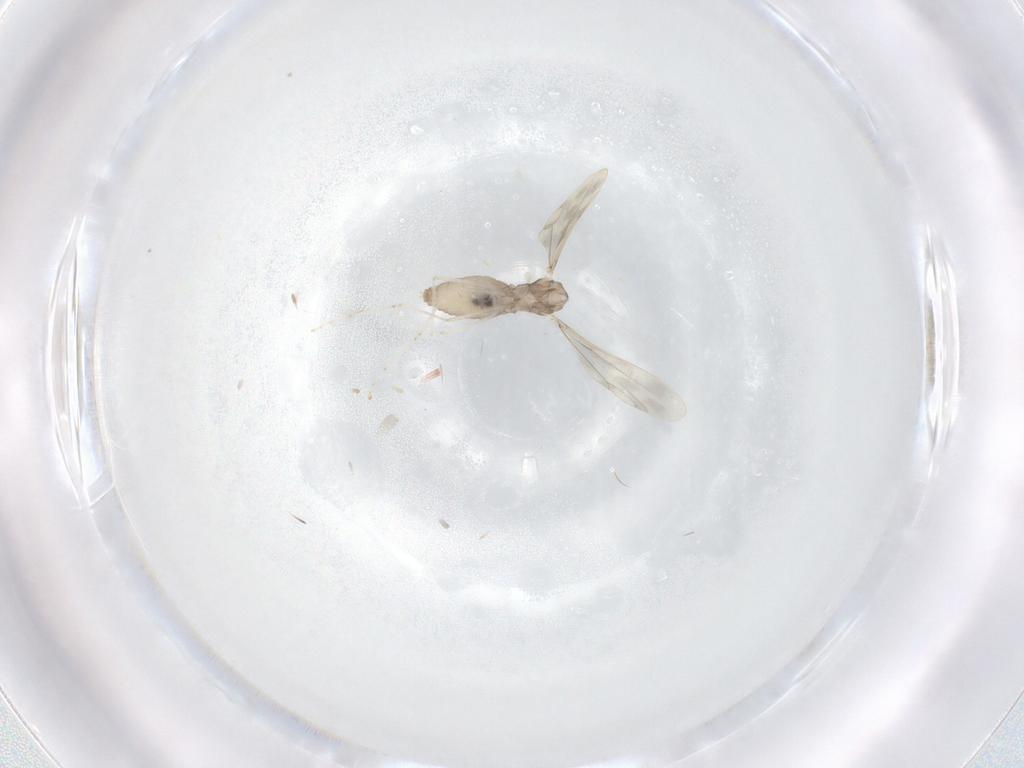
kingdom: Animalia
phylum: Arthropoda
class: Insecta
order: Diptera
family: Cecidomyiidae
